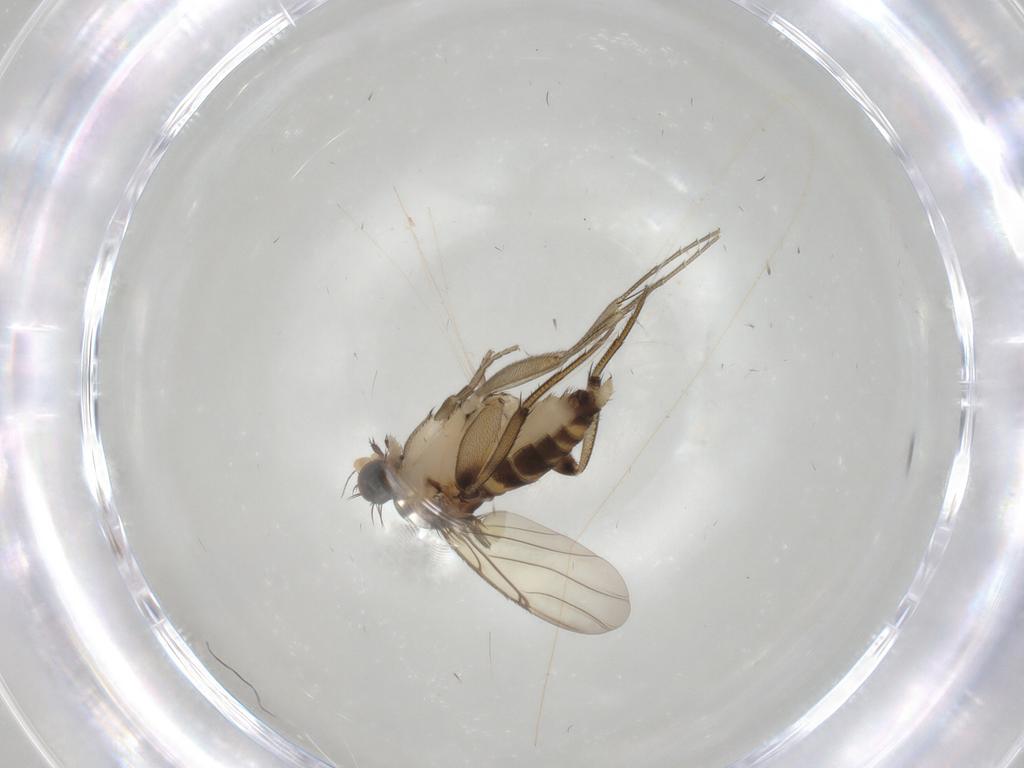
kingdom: Animalia
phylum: Arthropoda
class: Insecta
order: Diptera
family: Phoridae
